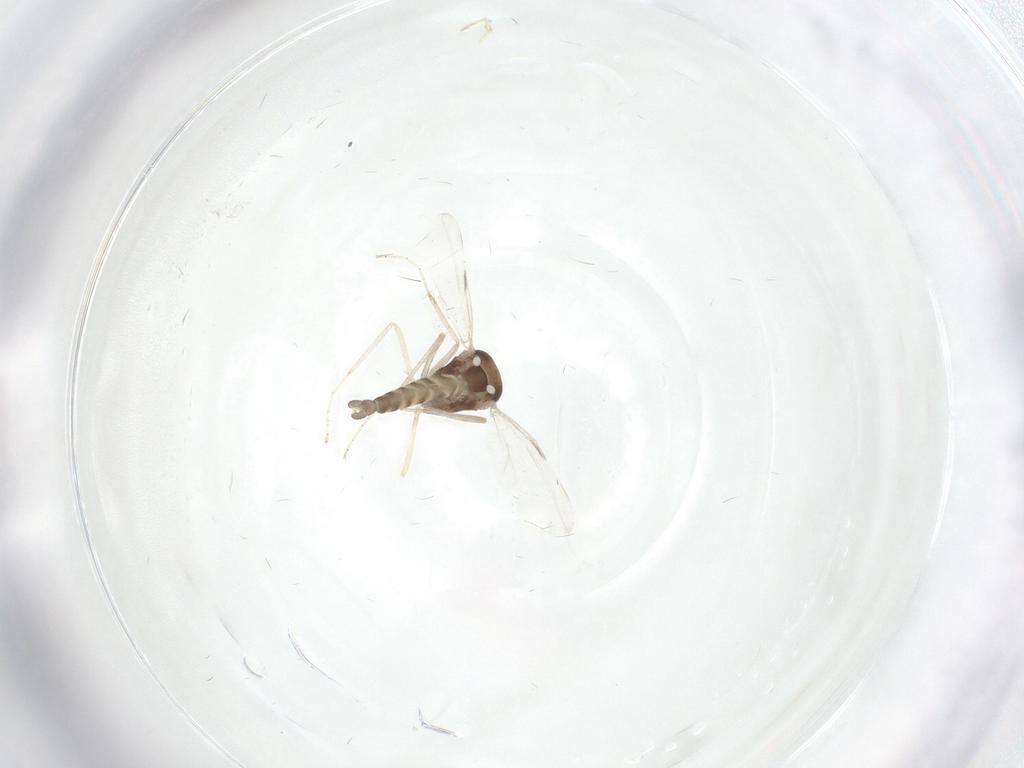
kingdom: Animalia
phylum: Arthropoda
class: Insecta
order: Diptera
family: Ceratopogonidae
